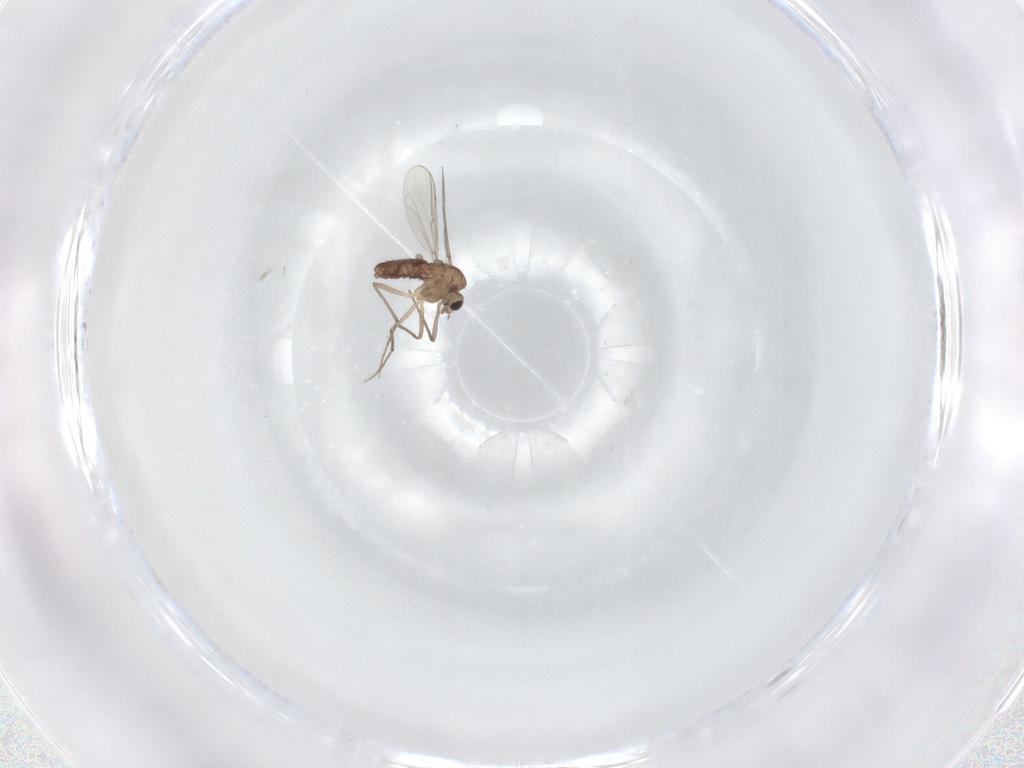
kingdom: Animalia
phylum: Arthropoda
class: Insecta
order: Diptera
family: Chironomidae
